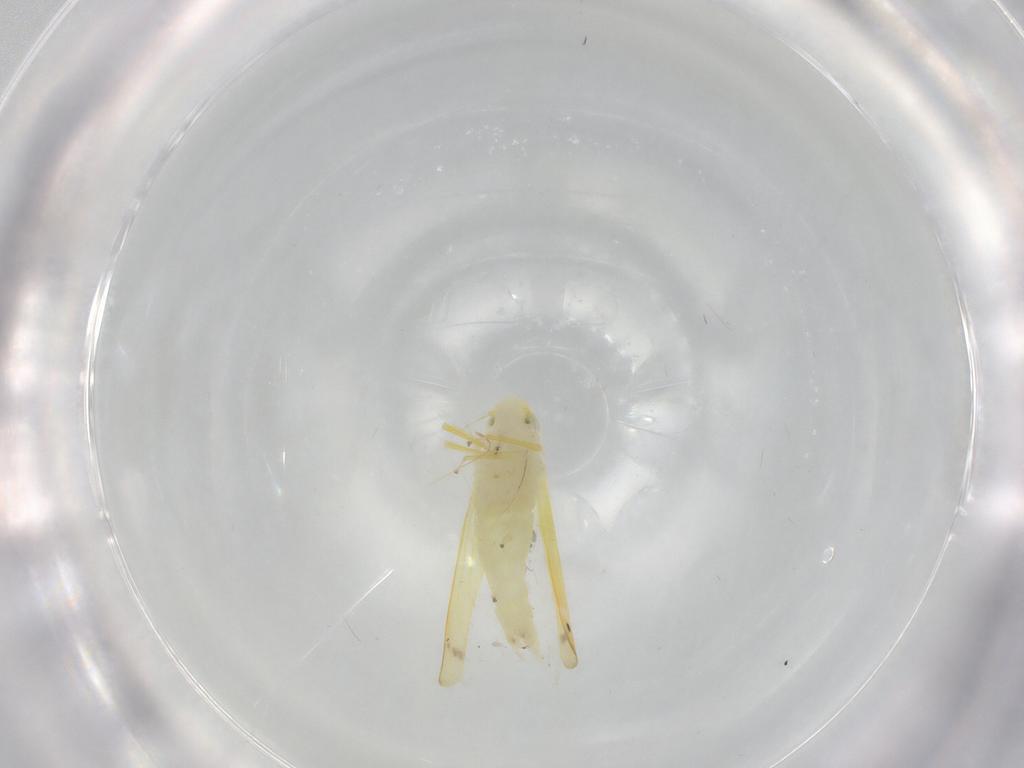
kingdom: Animalia
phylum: Arthropoda
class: Insecta
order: Hemiptera
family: Cicadellidae
